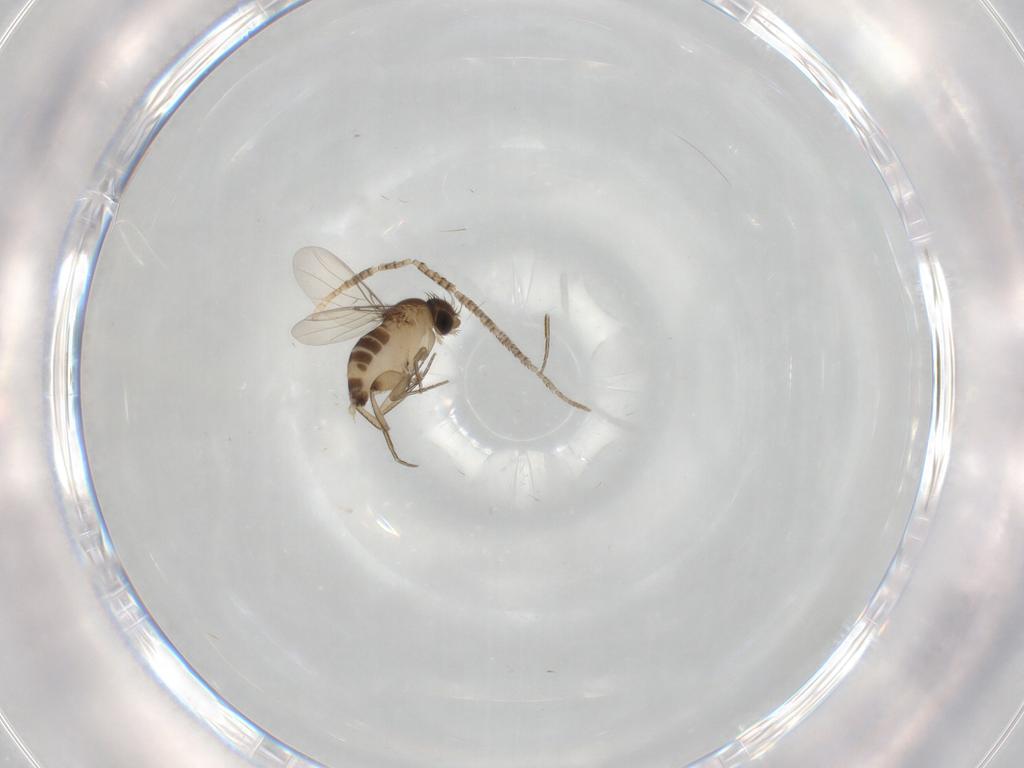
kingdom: Animalia
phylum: Arthropoda
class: Insecta
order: Diptera
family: Phoridae
